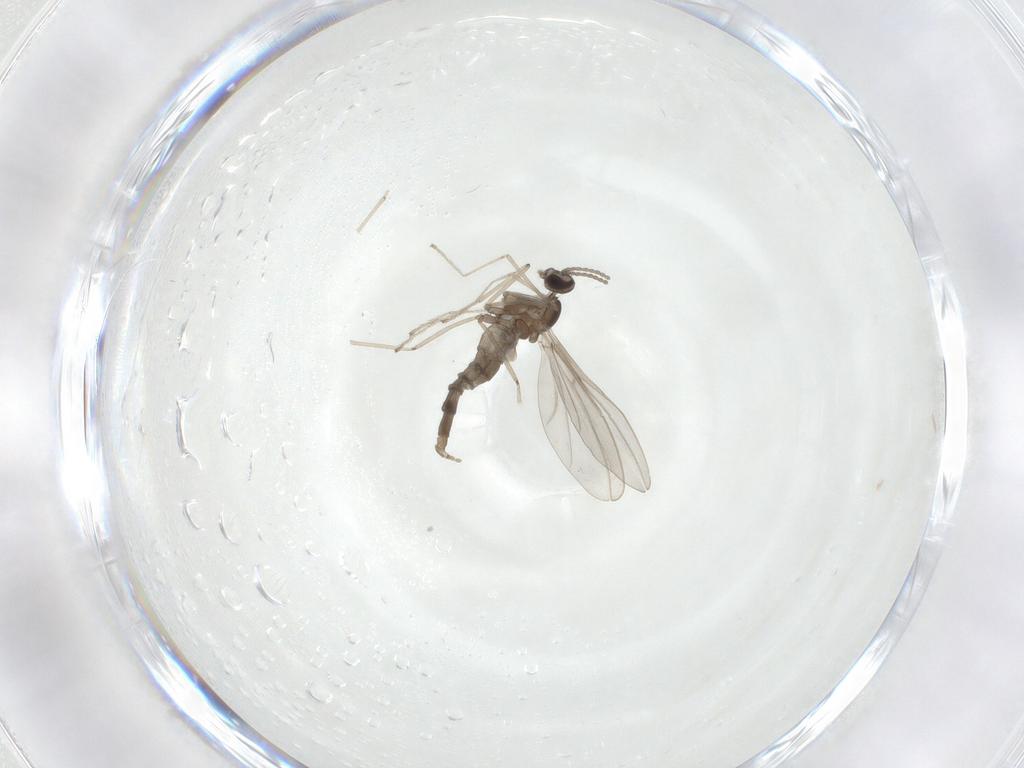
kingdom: Animalia
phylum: Arthropoda
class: Insecta
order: Diptera
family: Cecidomyiidae
